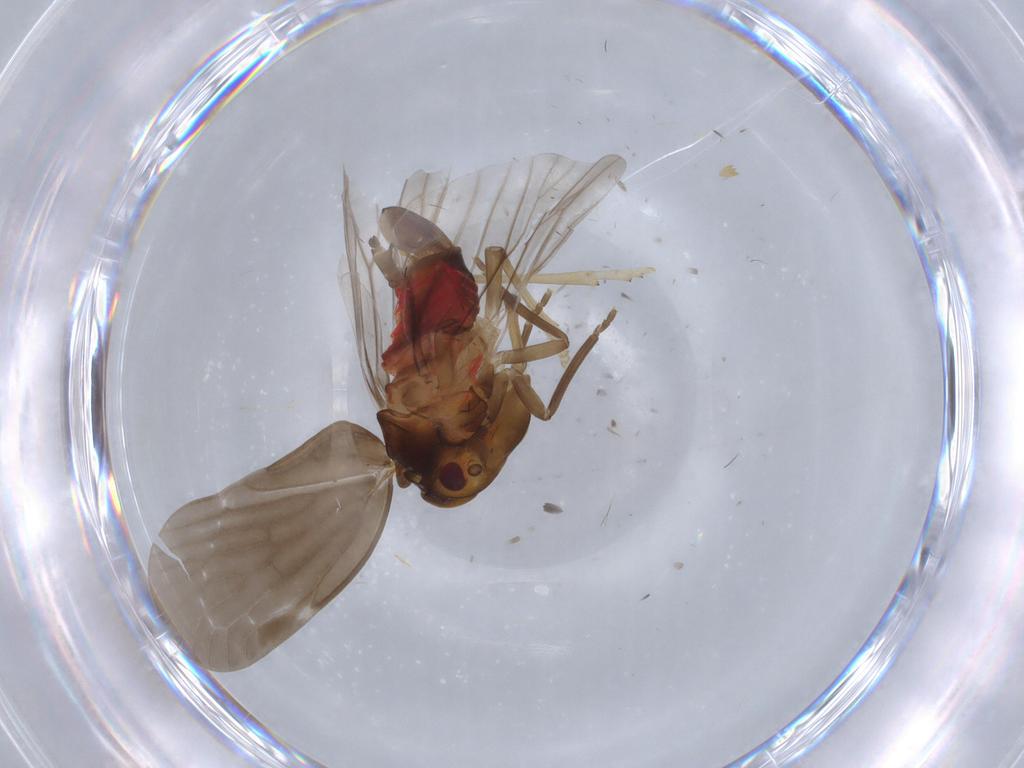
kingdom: Animalia
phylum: Arthropoda
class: Insecta
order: Hemiptera
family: Derbidae
